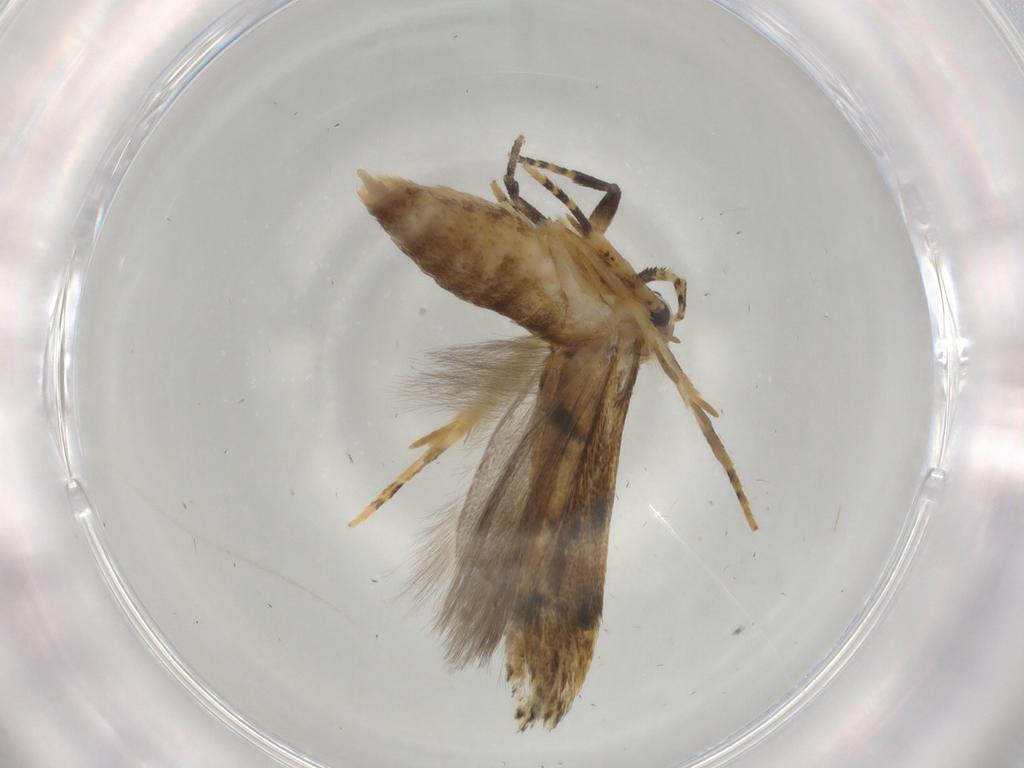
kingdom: Animalia
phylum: Arthropoda
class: Insecta
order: Lepidoptera
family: Gelechiidae
